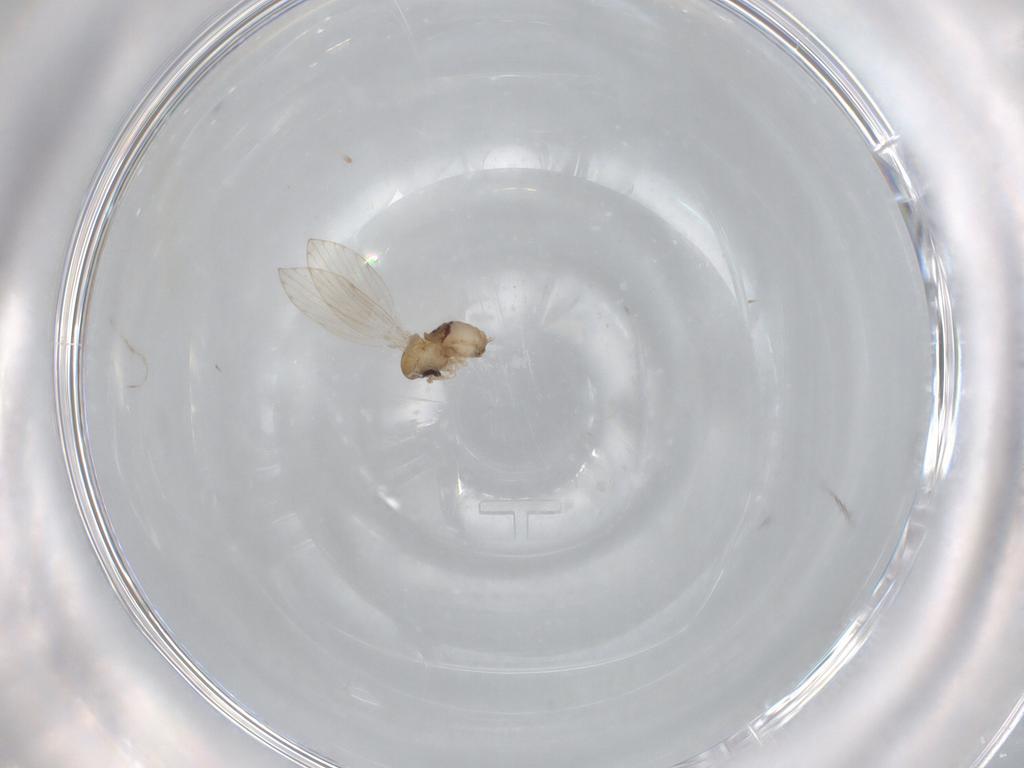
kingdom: Animalia
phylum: Arthropoda
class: Insecta
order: Diptera
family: Psychodidae
